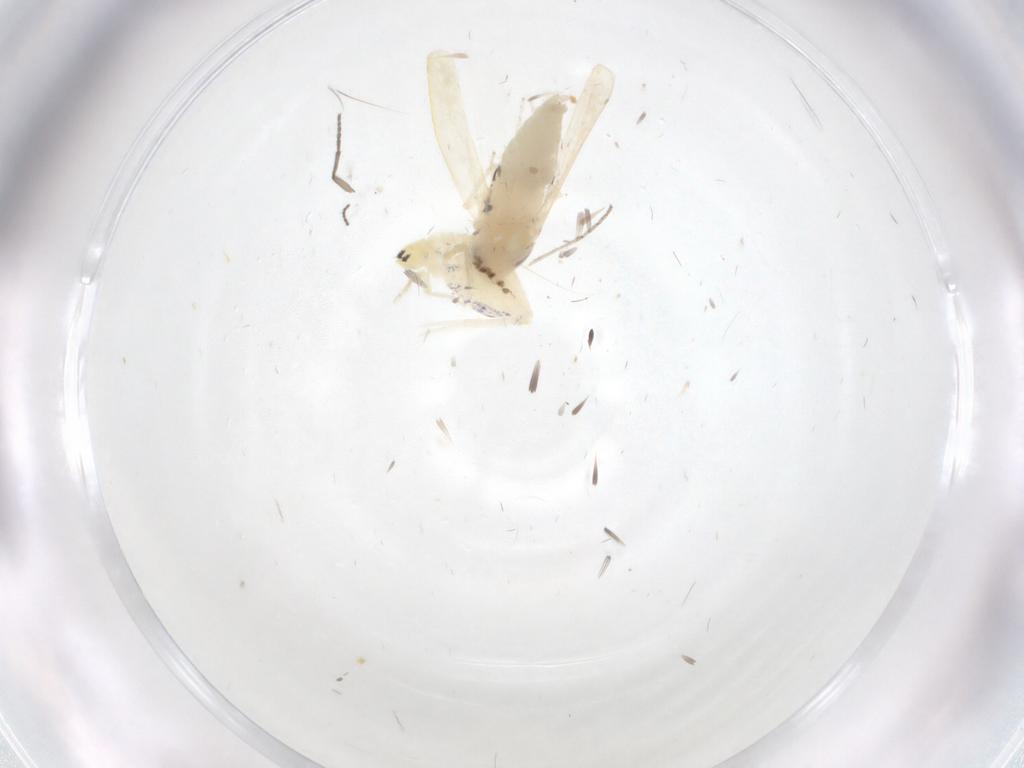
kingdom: Animalia
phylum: Arthropoda
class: Insecta
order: Hemiptera
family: Cicadellidae
